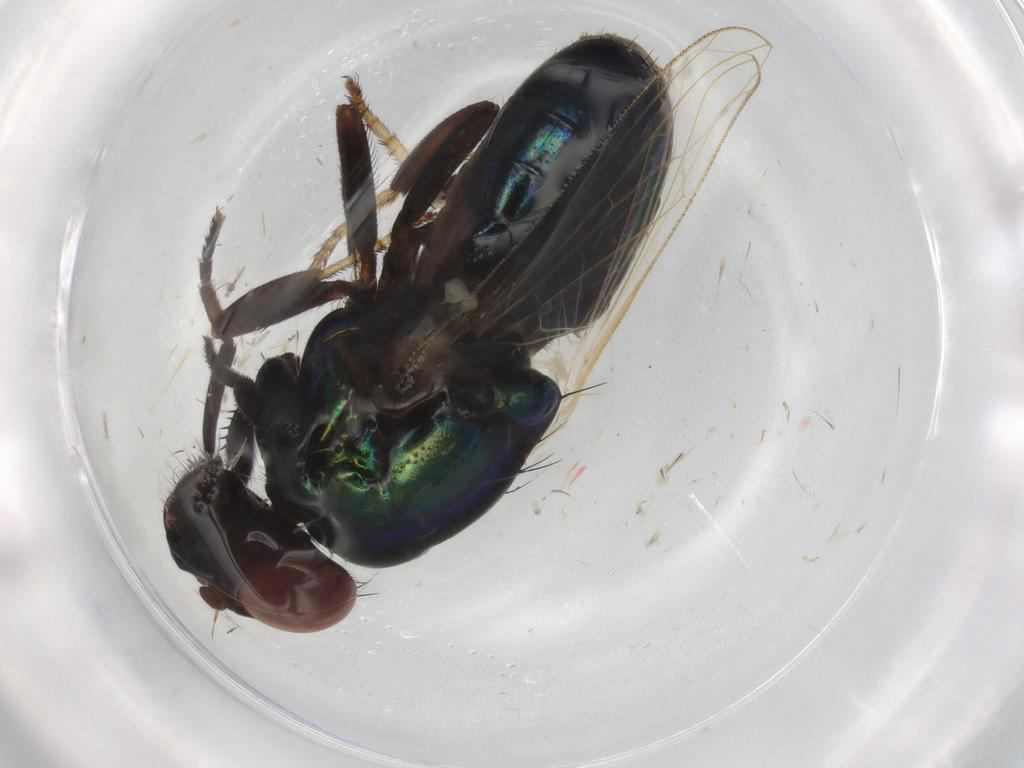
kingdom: Animalia
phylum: Arthropoda
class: Insecta
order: Diptera
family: Ulidiidae
